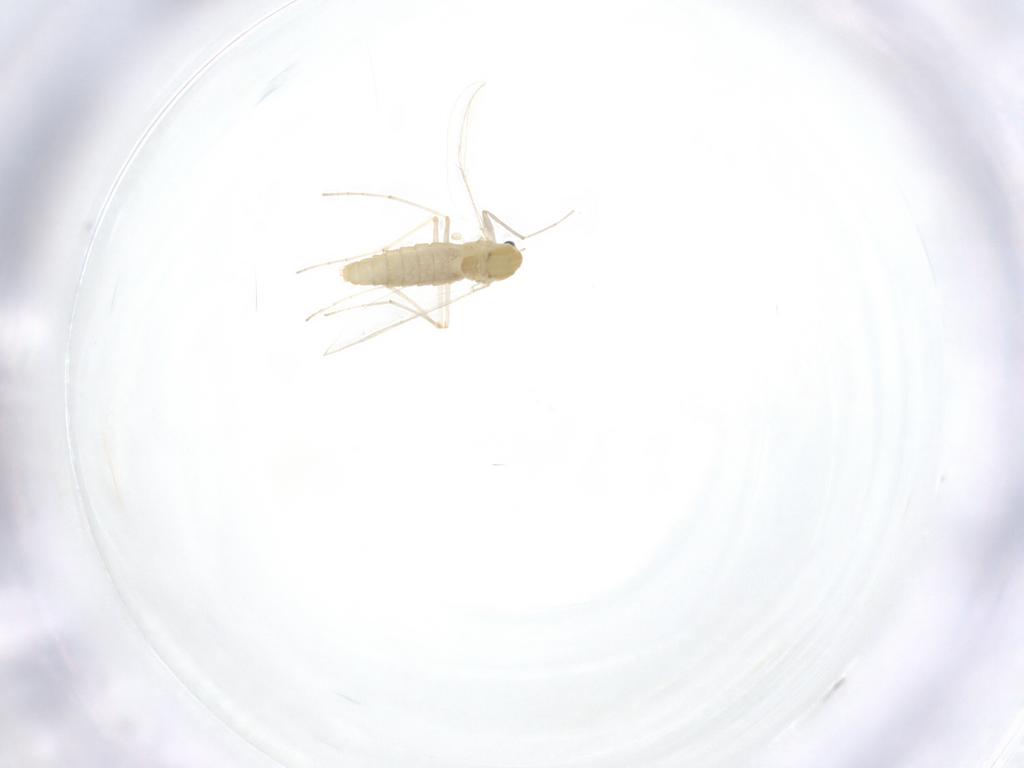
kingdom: Animalia
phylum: Arthropoda
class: Insecta
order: Diptera
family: Chironomidae
